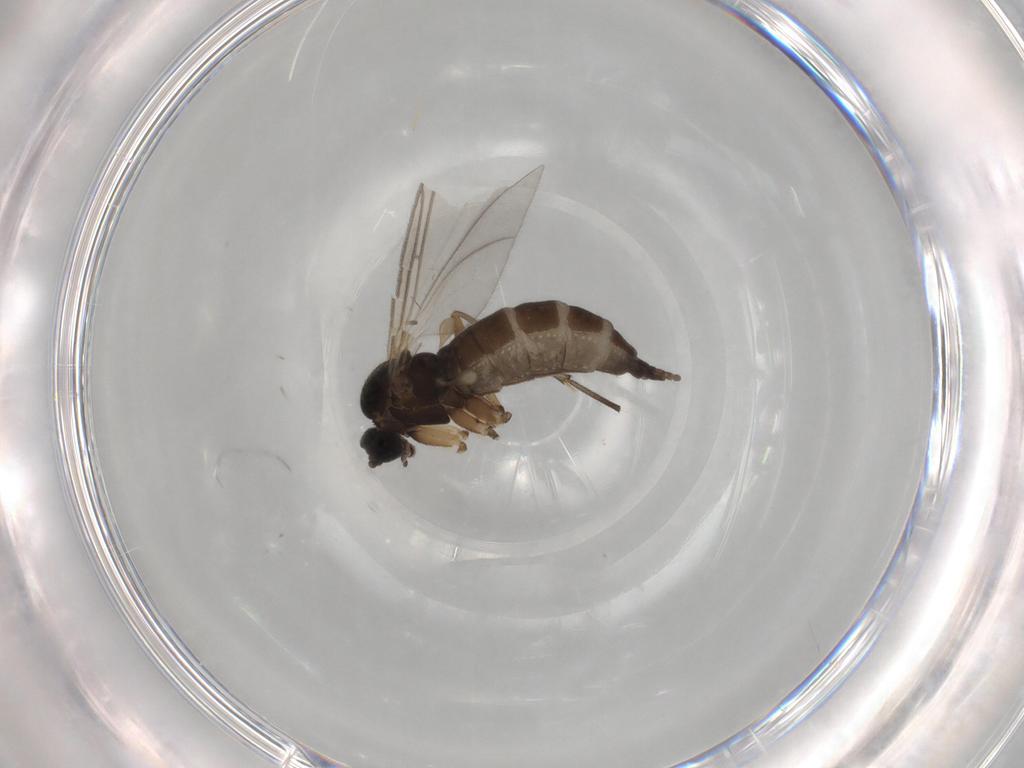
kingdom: Animalia
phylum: Arthropoda
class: Insecta
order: Diptera
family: Sciaridae
